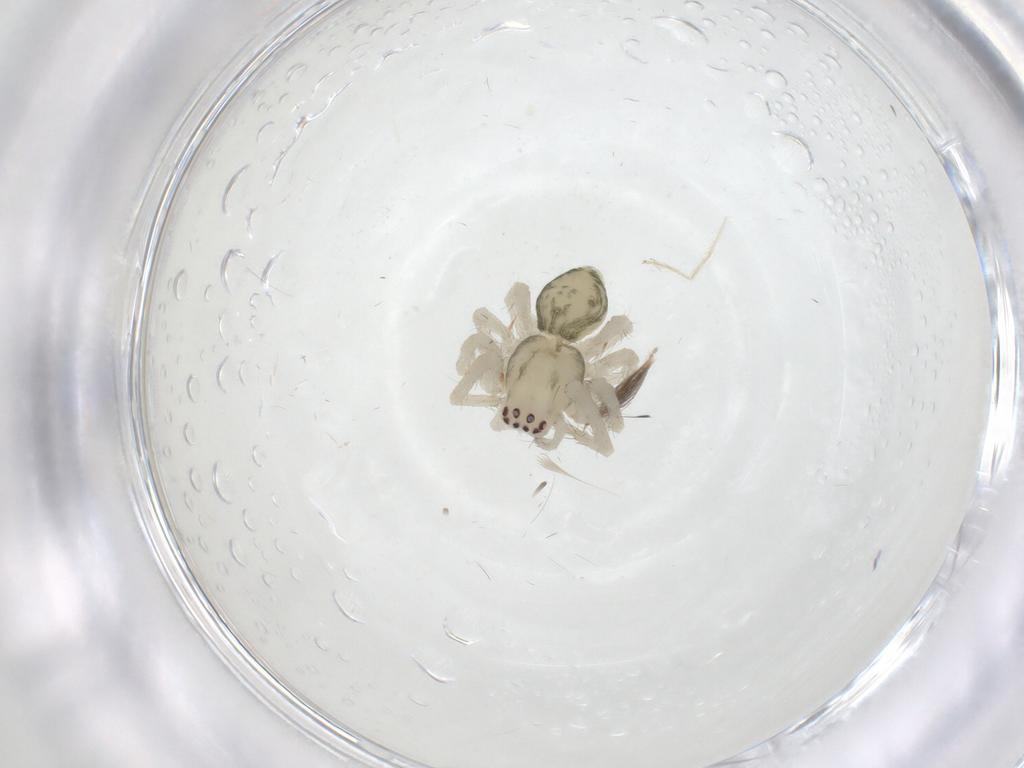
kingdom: Animalia
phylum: Arthropoda
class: Arachnida
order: Araneae
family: Dictynidae
